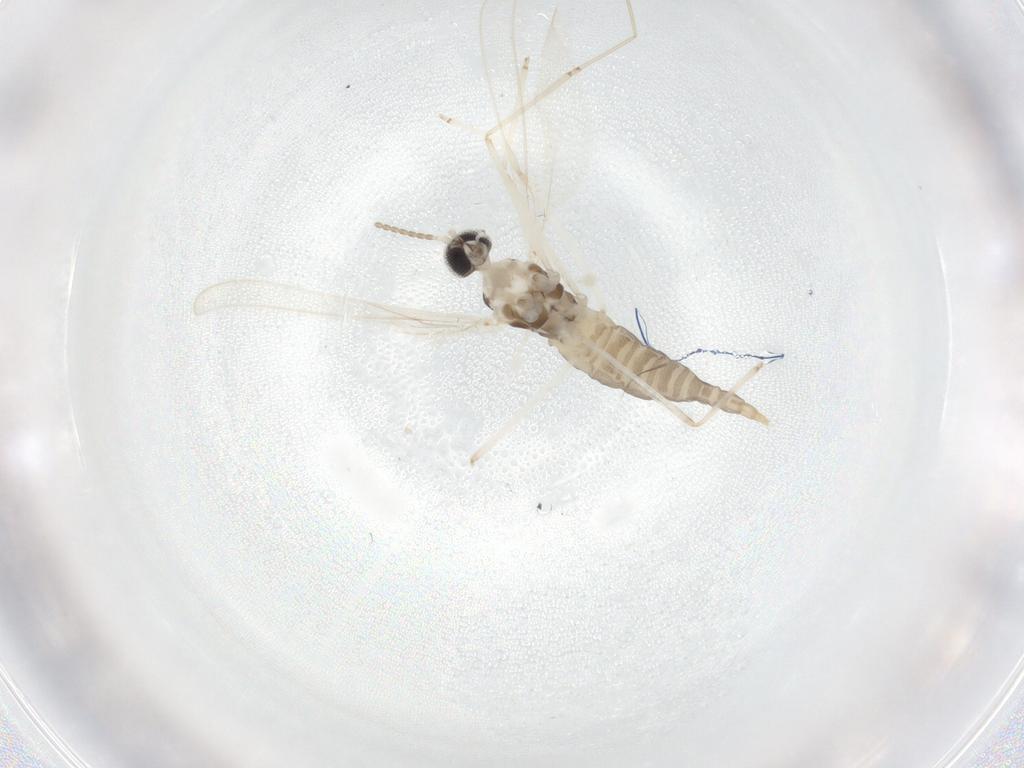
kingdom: Animalia
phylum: Arthropoda
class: Insecta
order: Diptera
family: Cecidomyiidae
